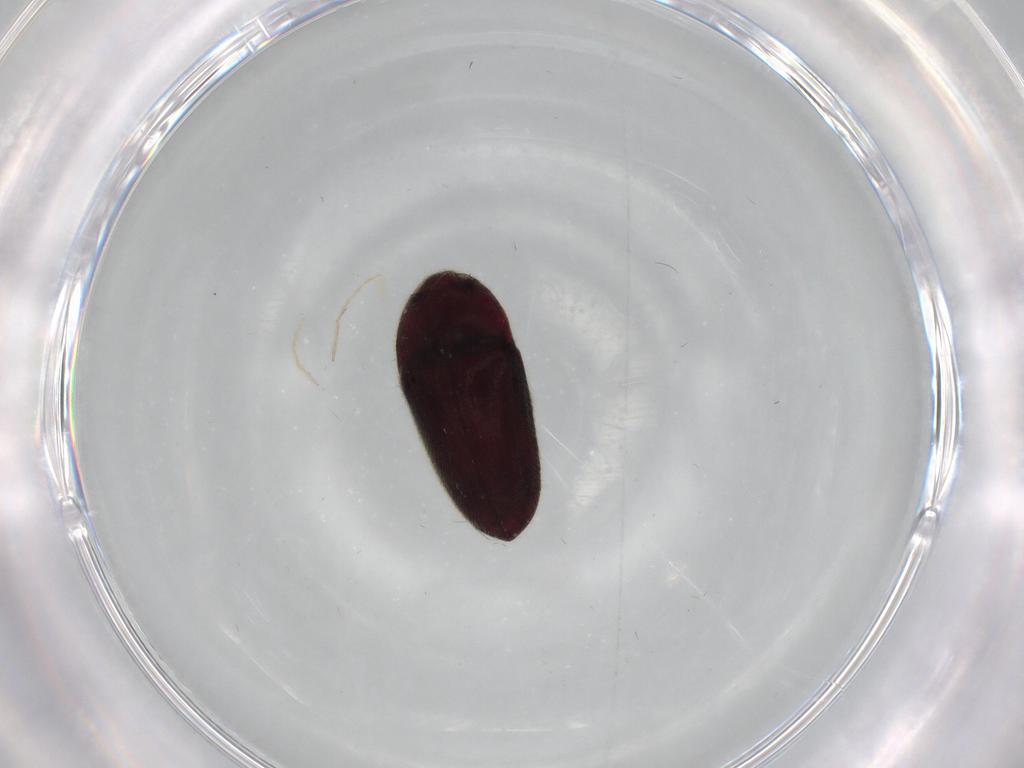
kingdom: Animalia
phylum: Arthropoda
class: Insecta
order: Coleoptera
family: Throscidae
